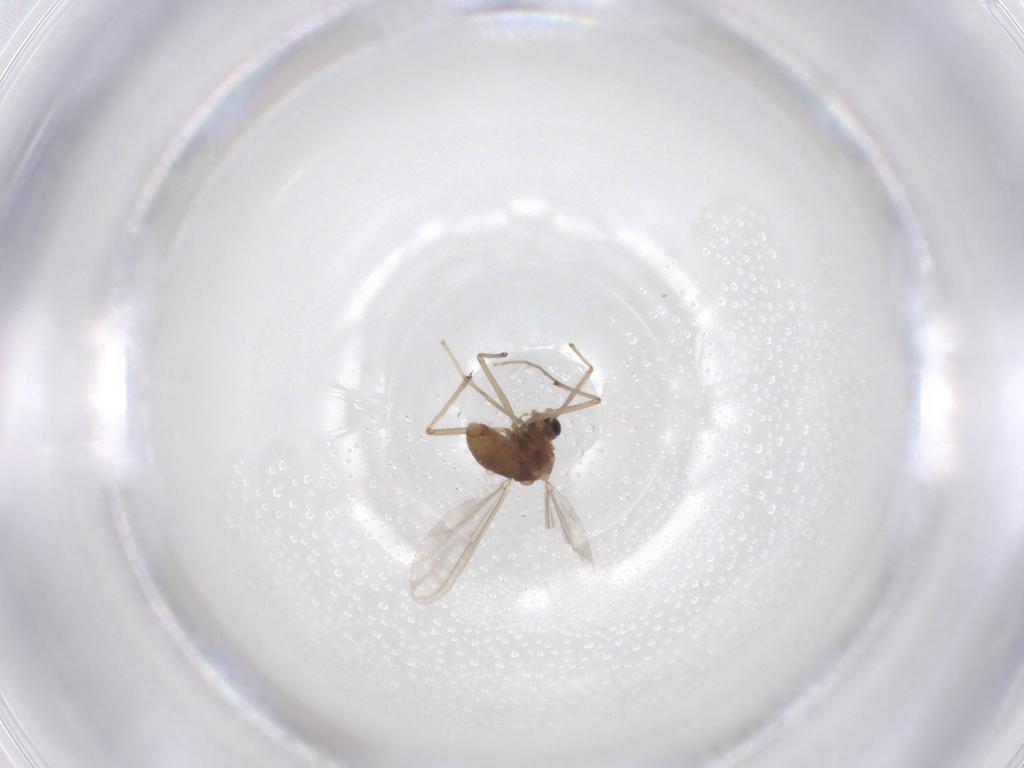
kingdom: Animalia
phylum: Arthropoda
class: Insecta
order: Diptera
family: Chironomidae
